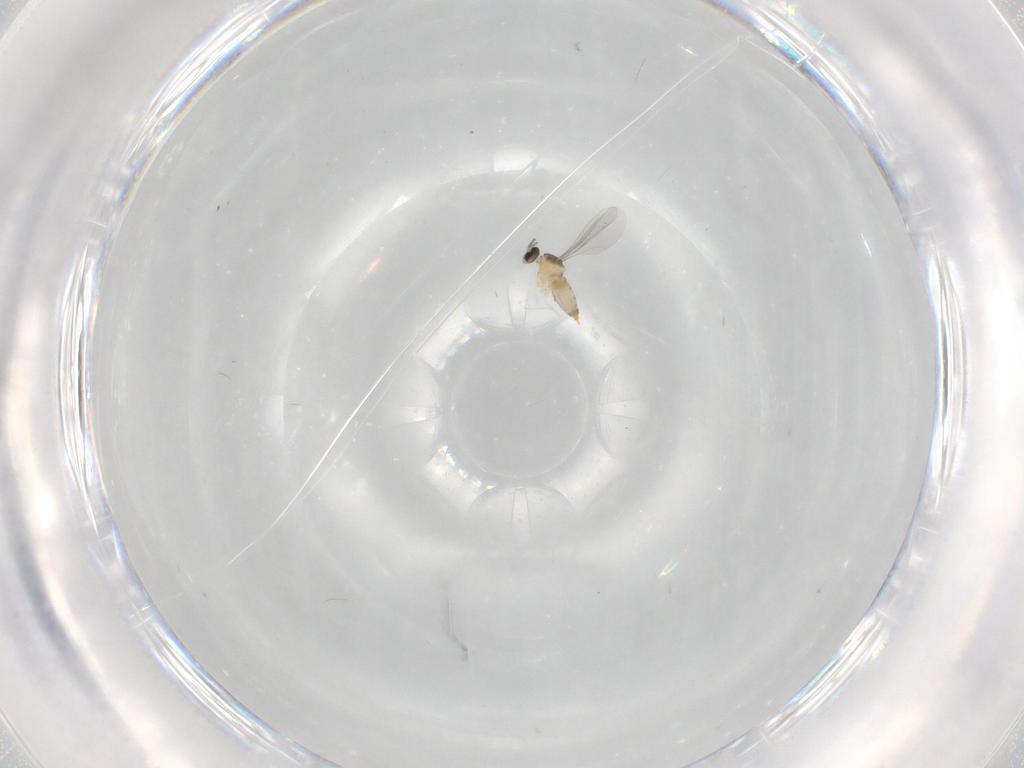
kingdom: Animalia
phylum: Arthropoda
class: Insecta
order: Diptera
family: Cecidomyiidae
